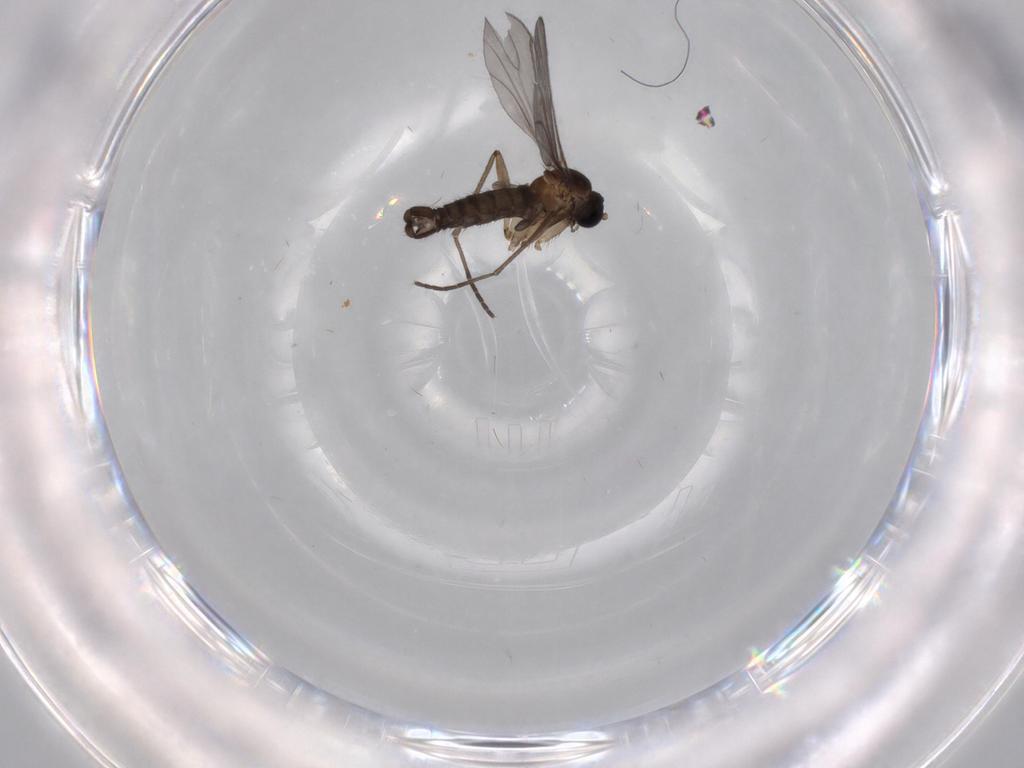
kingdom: Animalia
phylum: Arthropoda
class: Insecta
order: Diptera
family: Sciaridae
